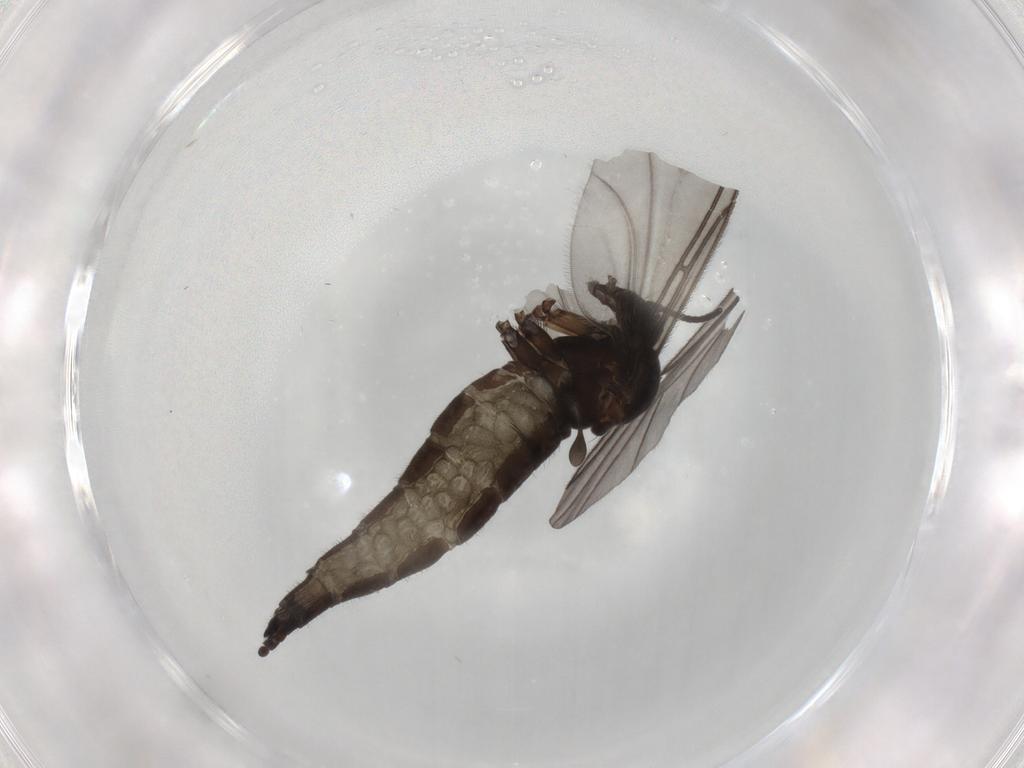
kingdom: Animalia
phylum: Arthropoda
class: Insecta
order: Diptera
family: Sciaridae
